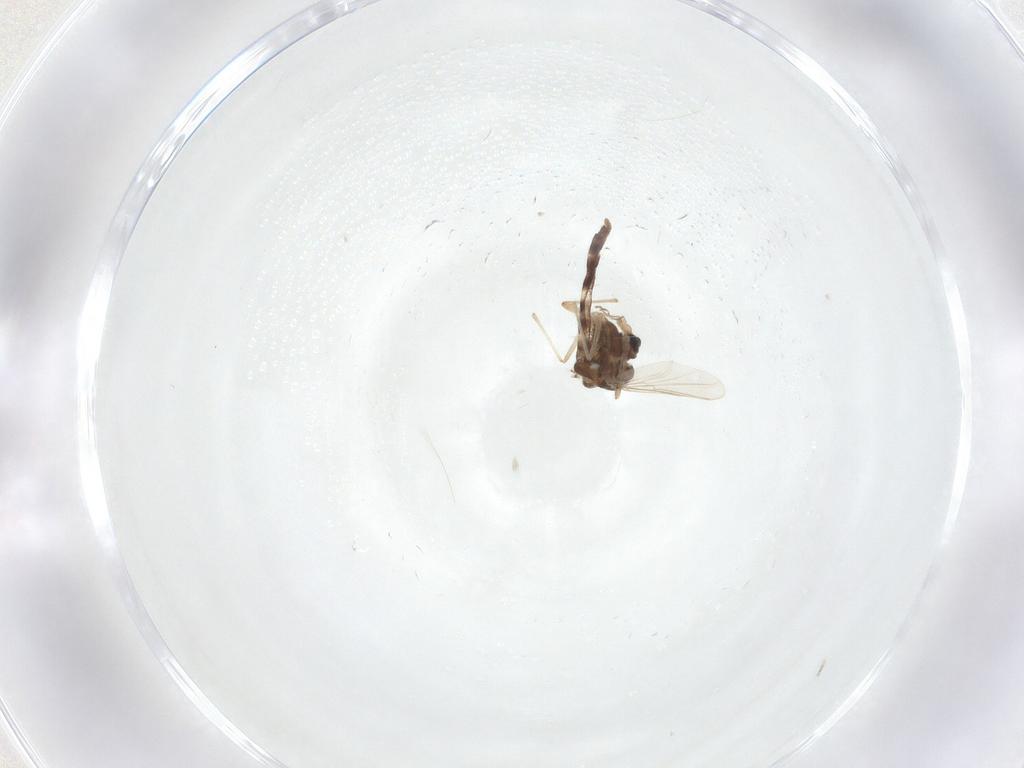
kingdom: Animalia
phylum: Arthropoda
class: Insecta
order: Diptera
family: Chironomidae
